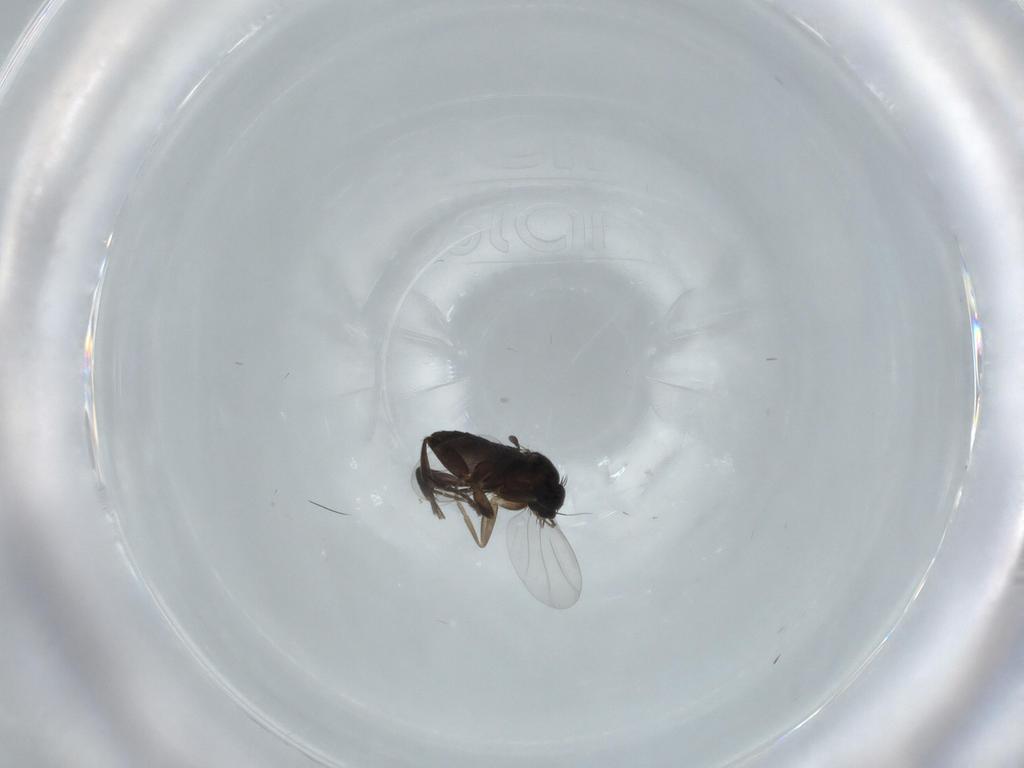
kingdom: Animalia
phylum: Arthropoda
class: Insecta
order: Diptera
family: Phoridae
